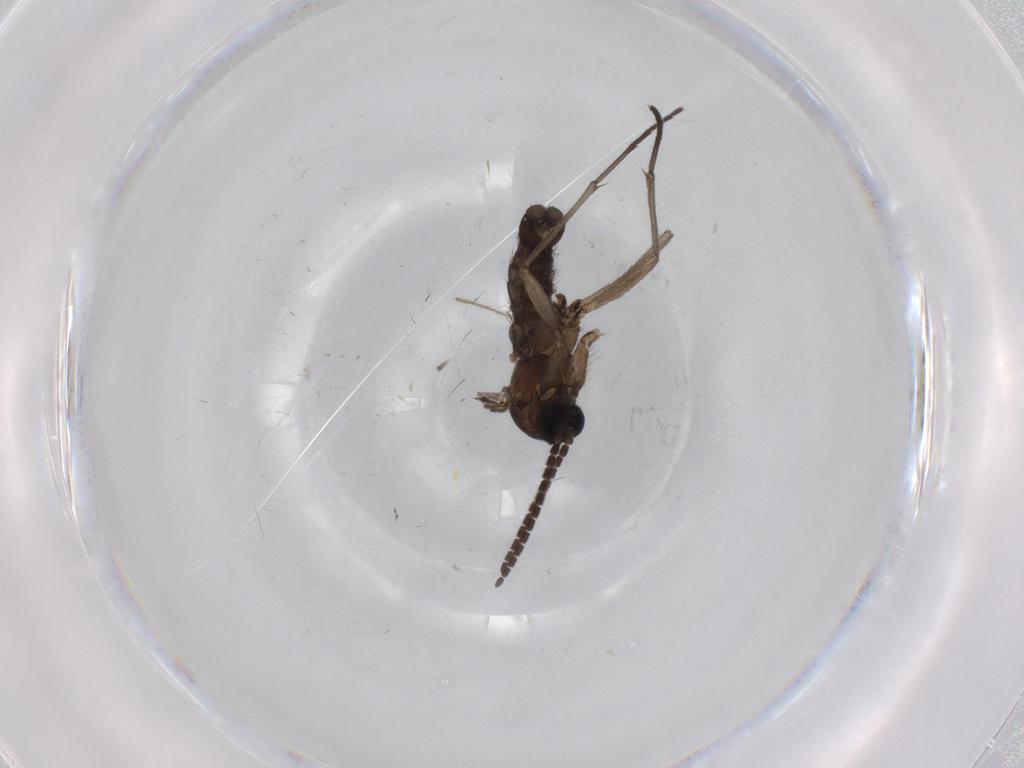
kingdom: Animalia
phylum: Arthropoda
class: Insecta
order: Diptera
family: Sciaridae
